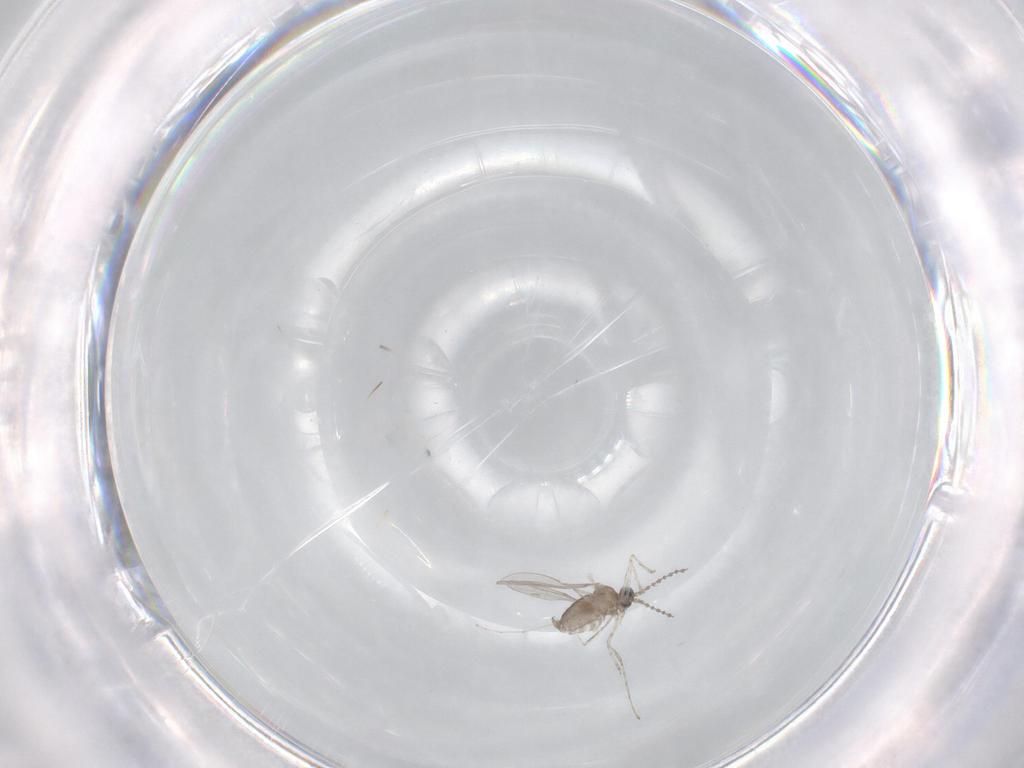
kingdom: Animalia
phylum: Arthropoda
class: Insecta
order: Diptera
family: Cecidomyiidae
